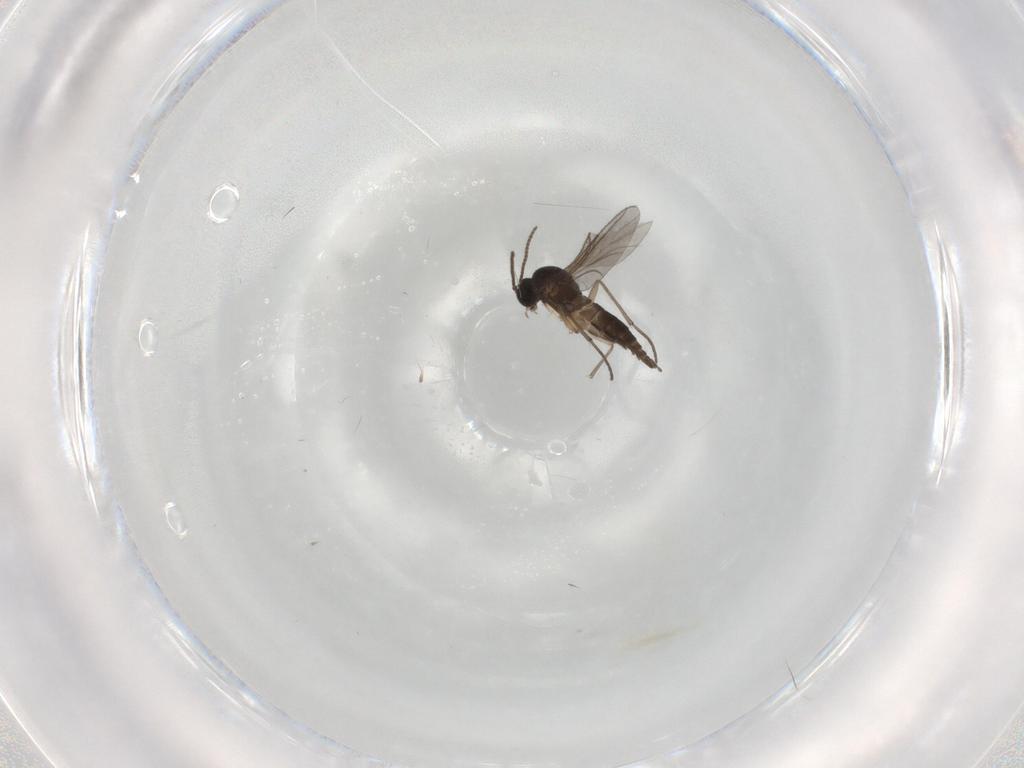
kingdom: Animalia
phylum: Arthropoda
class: Insecta
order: Diptera
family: Sciaridae
